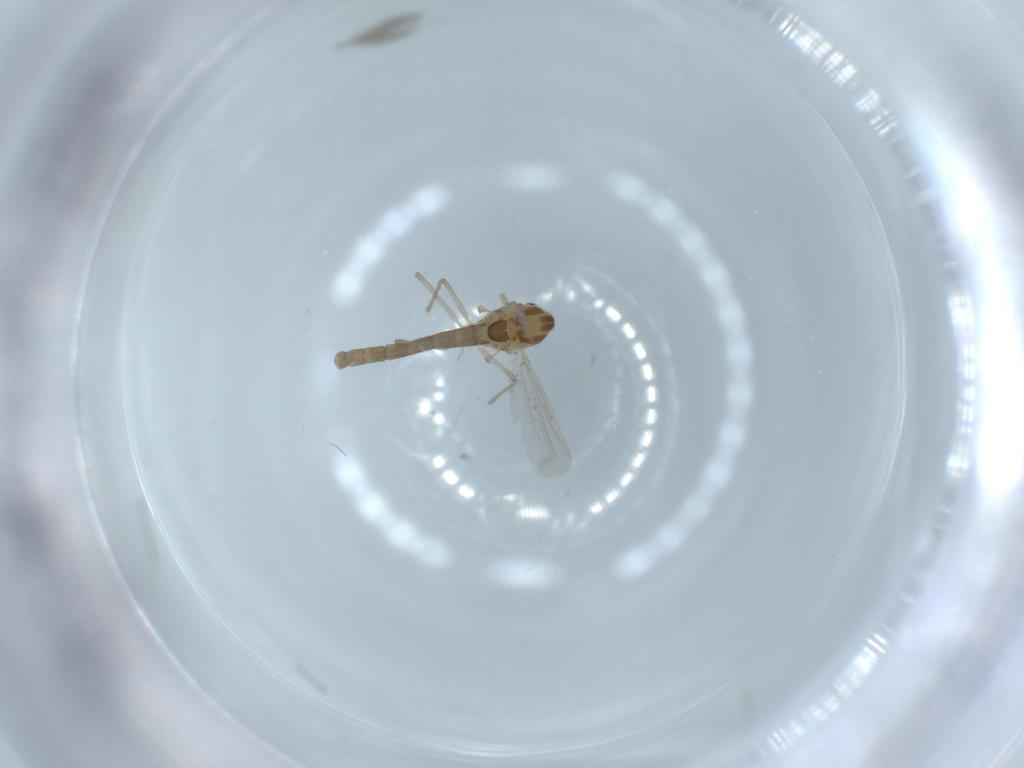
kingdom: Animalia
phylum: Arthropoda
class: Insecta
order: Diptera
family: Chironomidae
